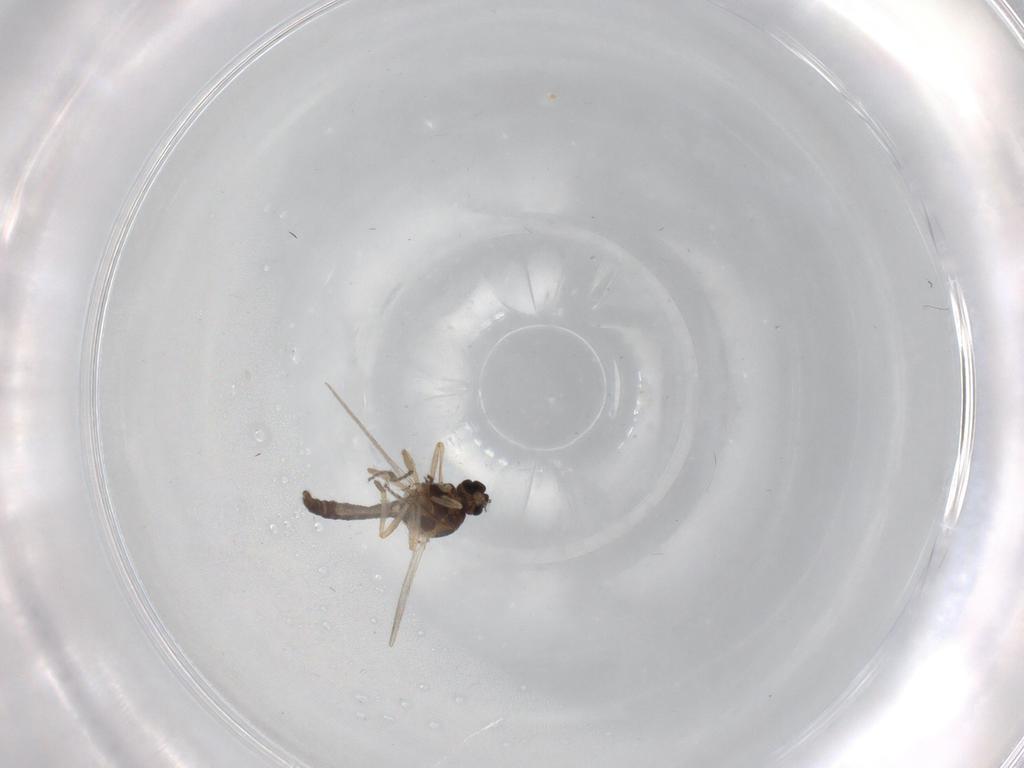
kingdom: Animalia
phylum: Arthropoda
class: Insecta
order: Diptera
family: Ceratopogonidae
